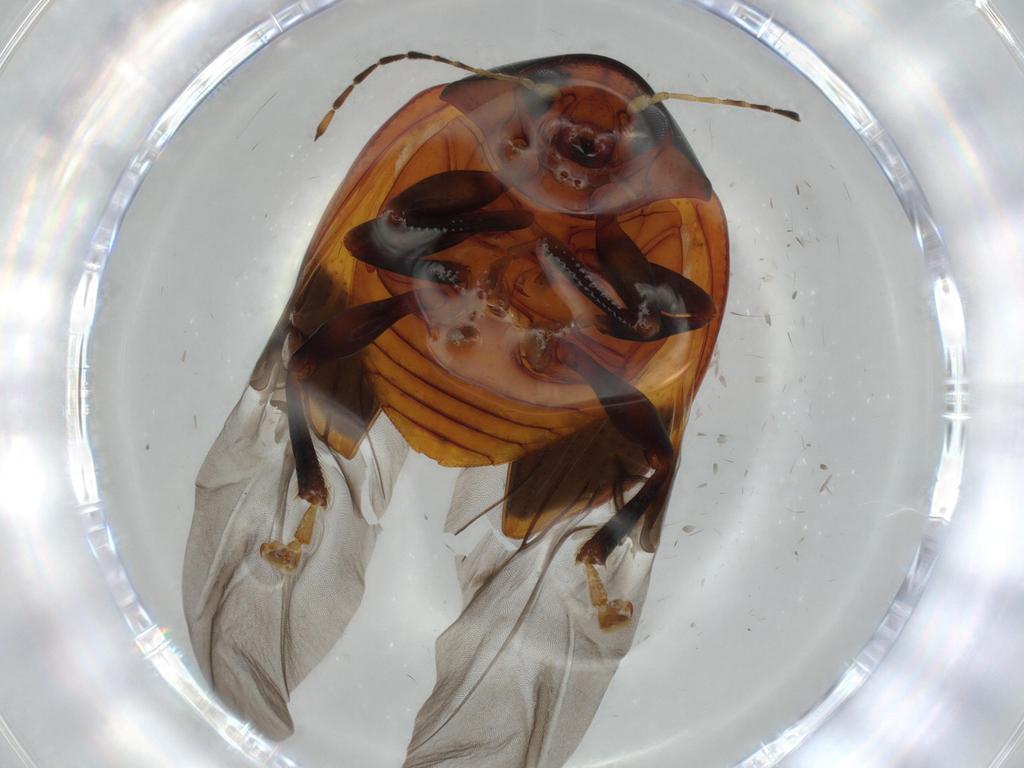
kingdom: Animalia
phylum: Arthropoda
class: Insecta
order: Coleoptera
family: Chrysomelidae
